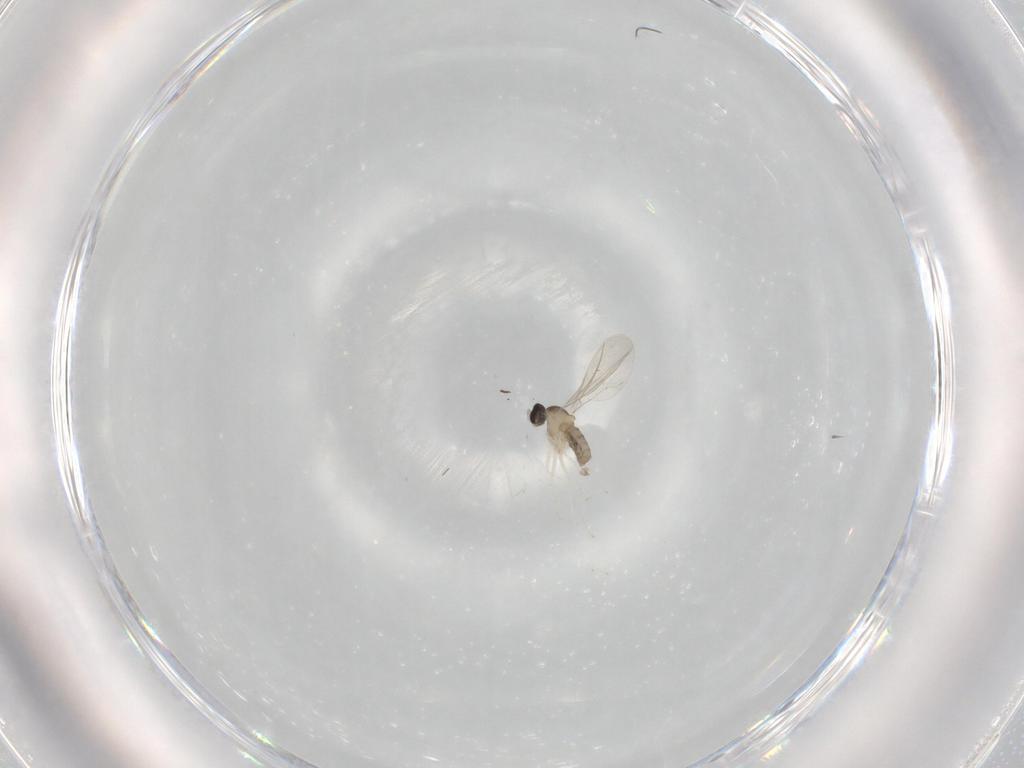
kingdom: Animalia
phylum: Arthropoda
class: Insecta
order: Diptera
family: Cecidomyiidae
